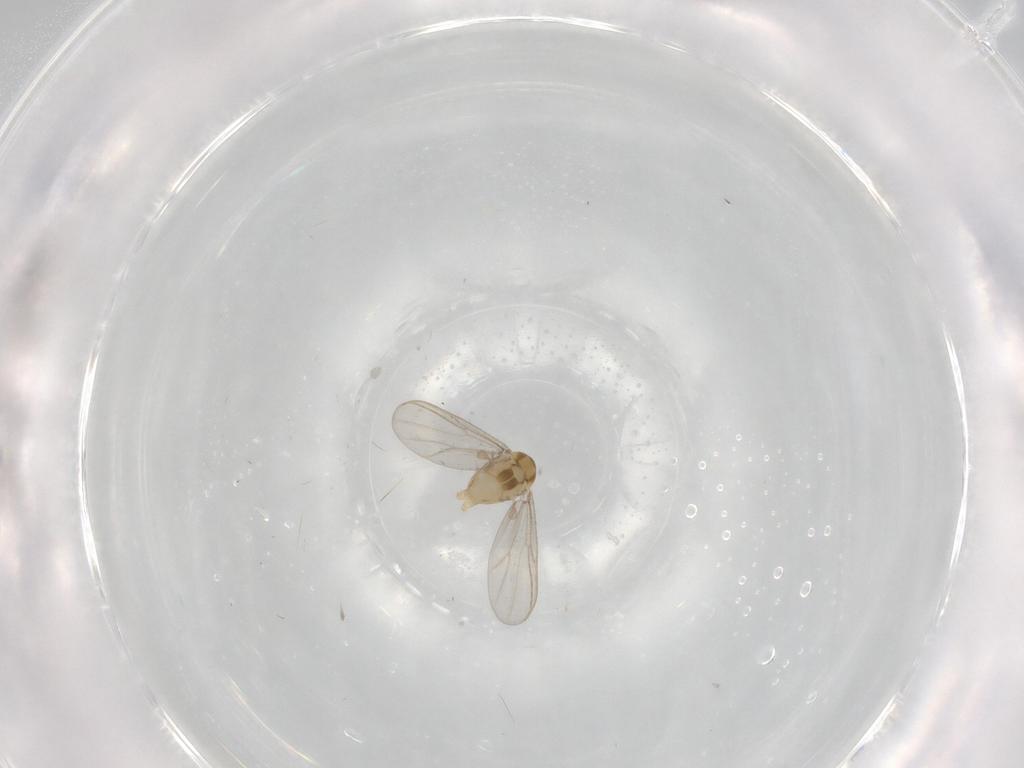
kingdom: Animalia
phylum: Arthropoda
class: Insecta
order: Diptera
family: Chironomidae
